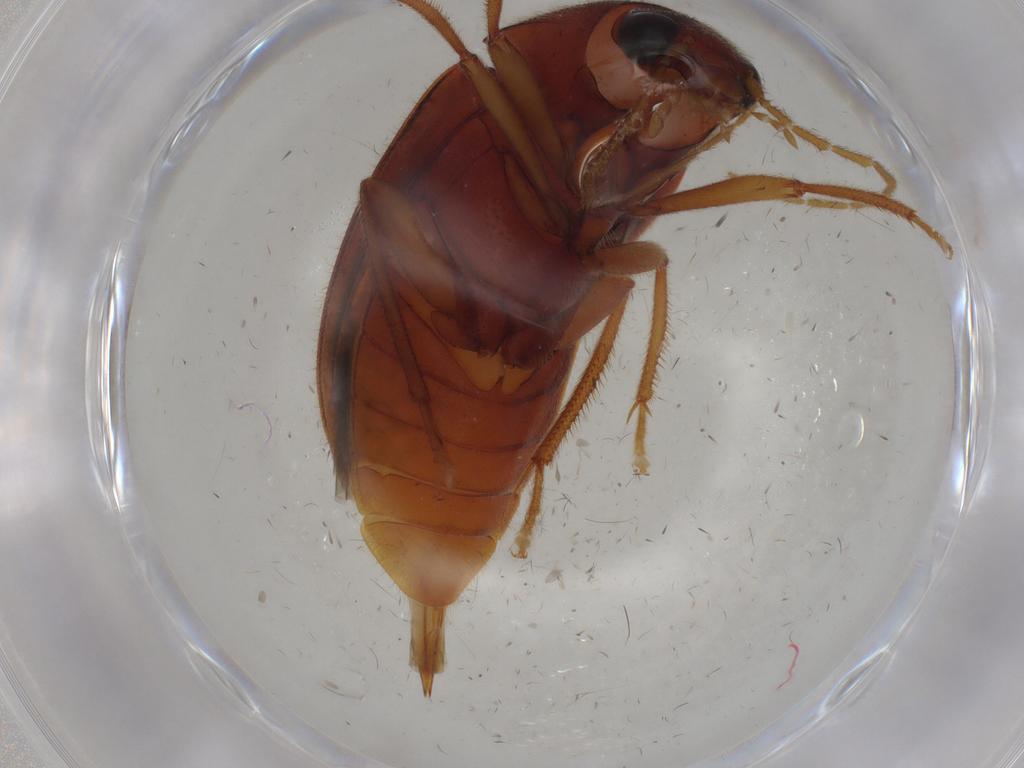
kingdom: Animalia
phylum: Arthropoda
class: Insecta
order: Coleoptera
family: Ptilodactylidae
